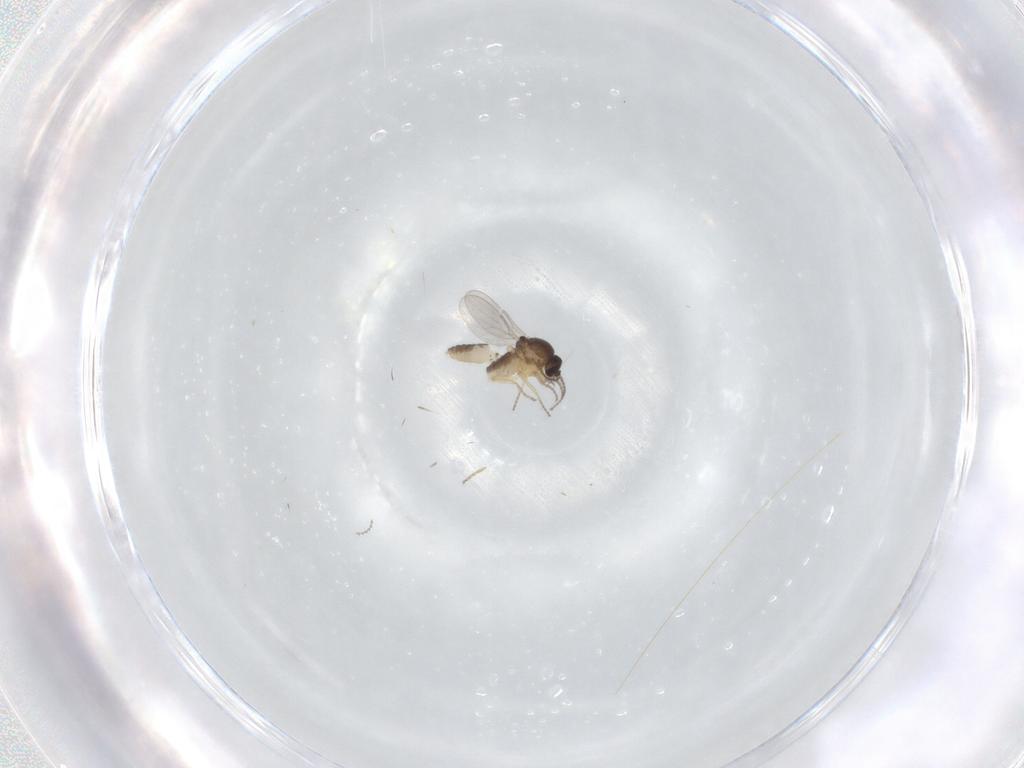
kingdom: Animalia
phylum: Arthropoda
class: Insecta
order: Diptera
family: Ceratopogonidae
